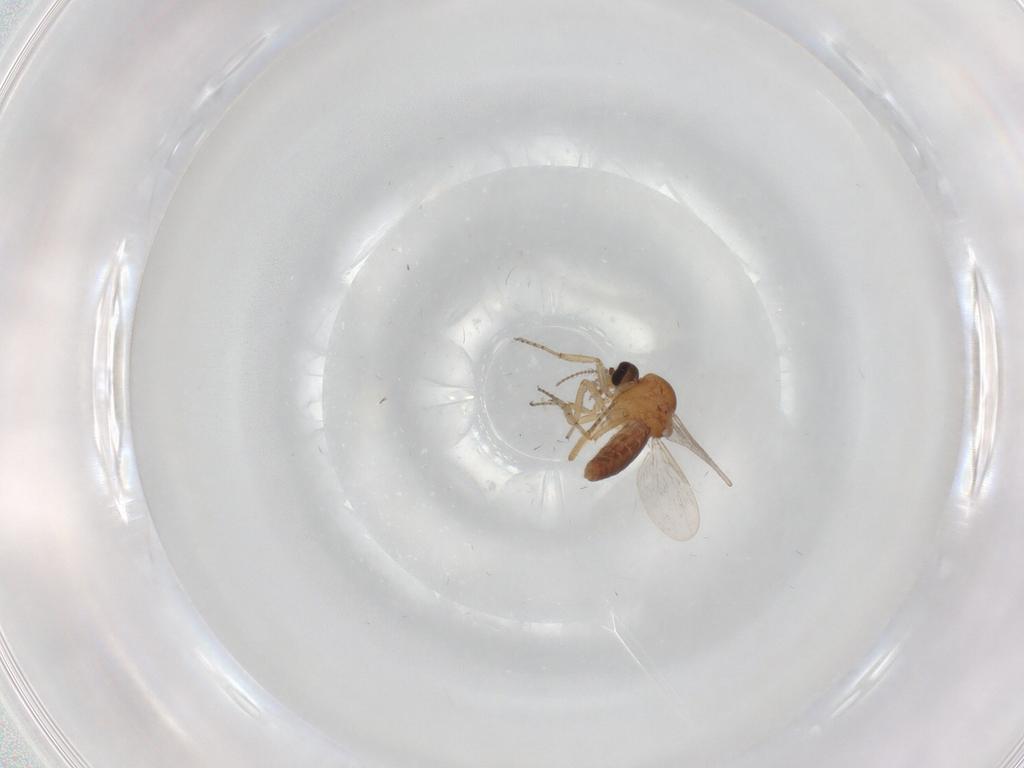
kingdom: Animalia
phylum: Arthropoda
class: Insecta
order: Diptera
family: Ceratopogonidae
